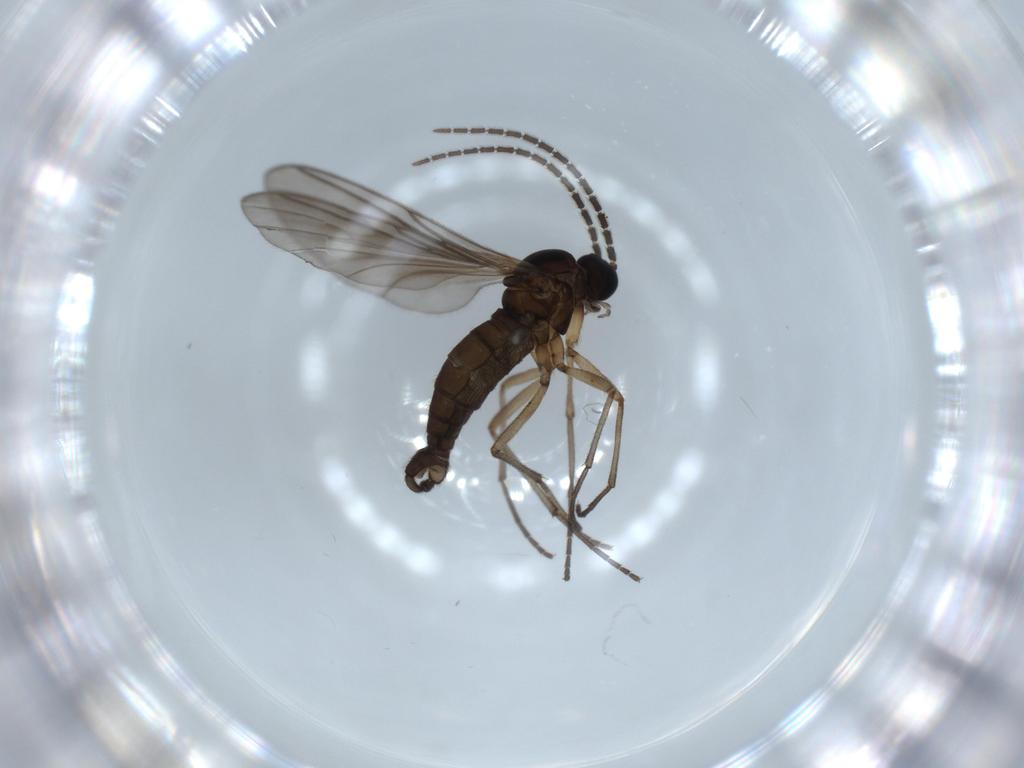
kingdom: Animalia
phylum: Arthropoda
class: Insecta
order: Diptera
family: Sciaridae
